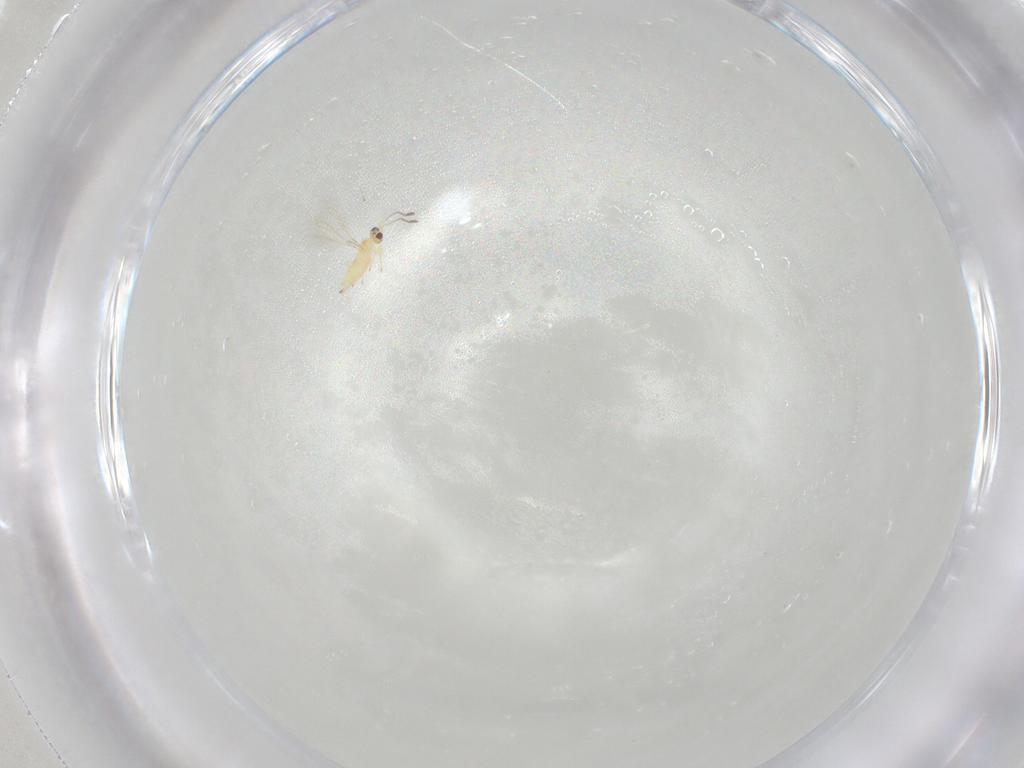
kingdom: Animalia
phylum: Arthropoda
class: Insecta
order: Hymenoptera
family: Mymaridae
